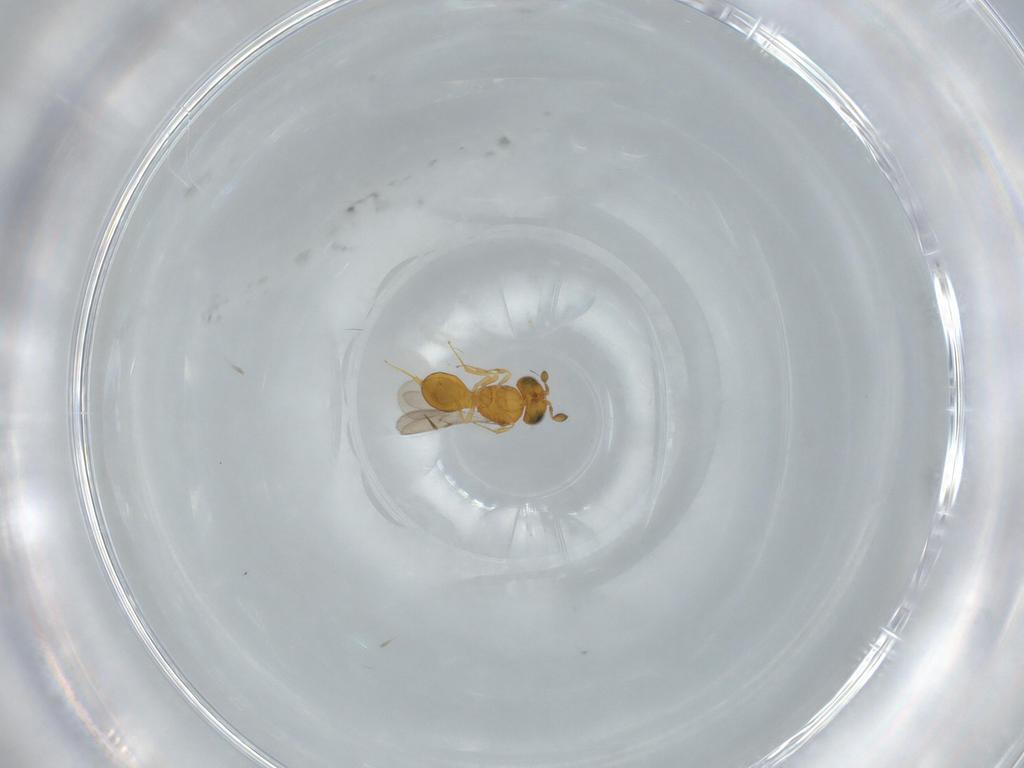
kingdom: Animalia
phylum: Arthropoda
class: Insecta
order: Hymenoptera
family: Scelionidae
